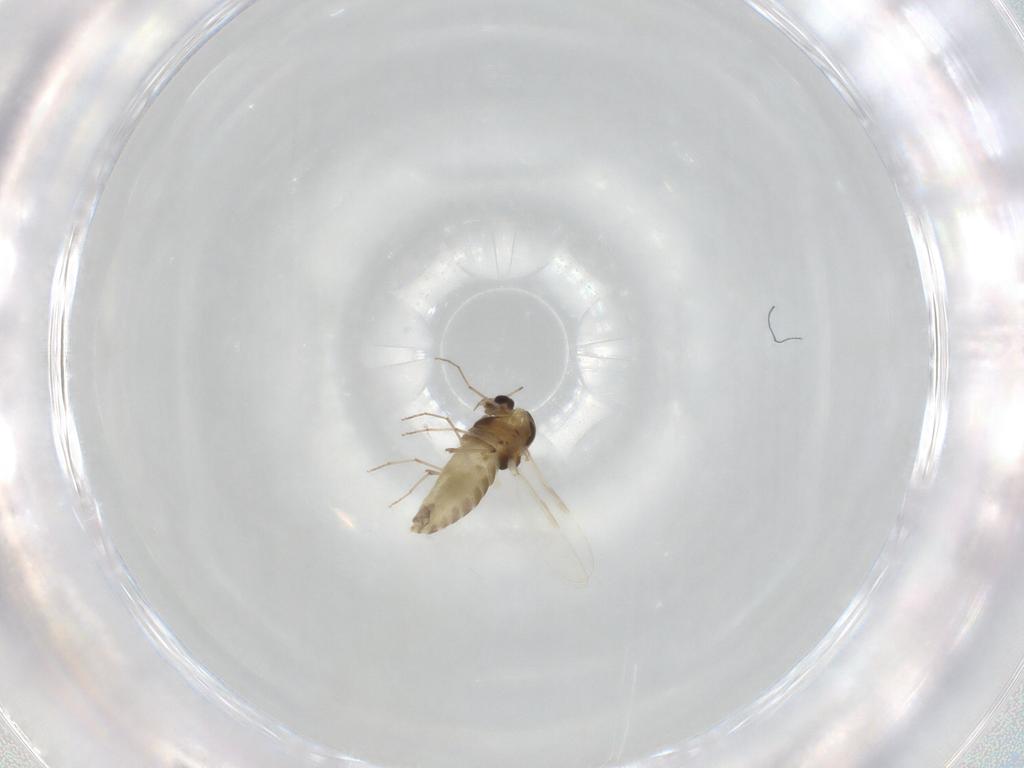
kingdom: Animalia
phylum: Arthropoda
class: Insecta
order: Diptera
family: Chironomidae
